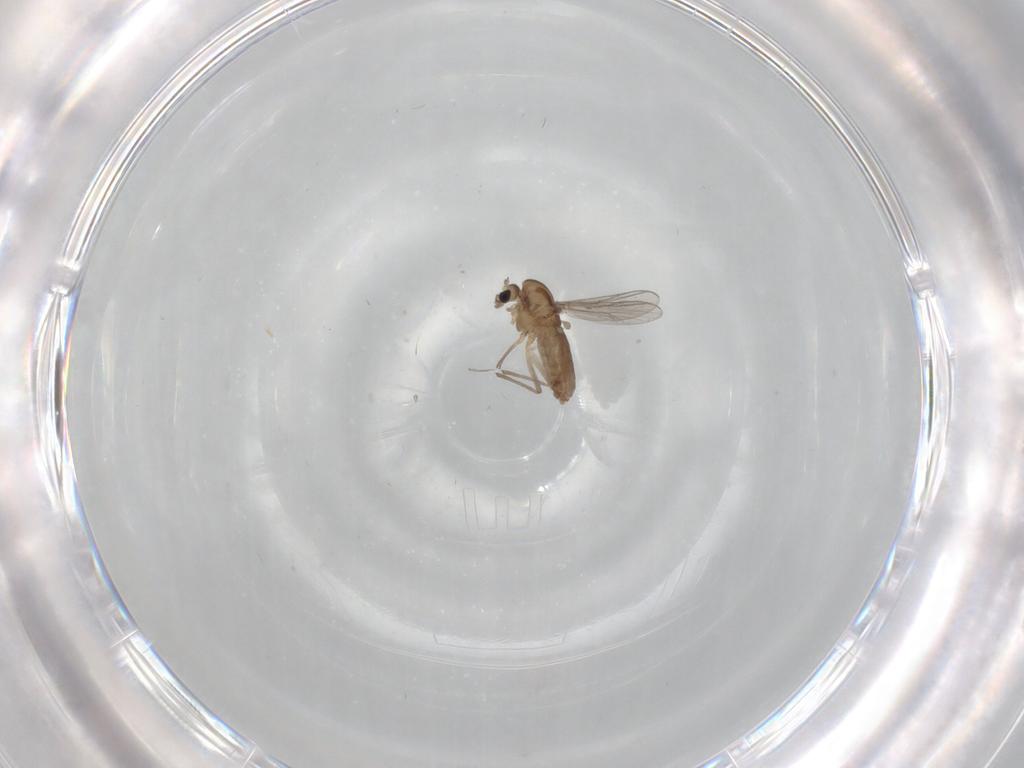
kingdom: Animalia
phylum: Arthropoda
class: Insecta
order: Diptera
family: Chironomidae
